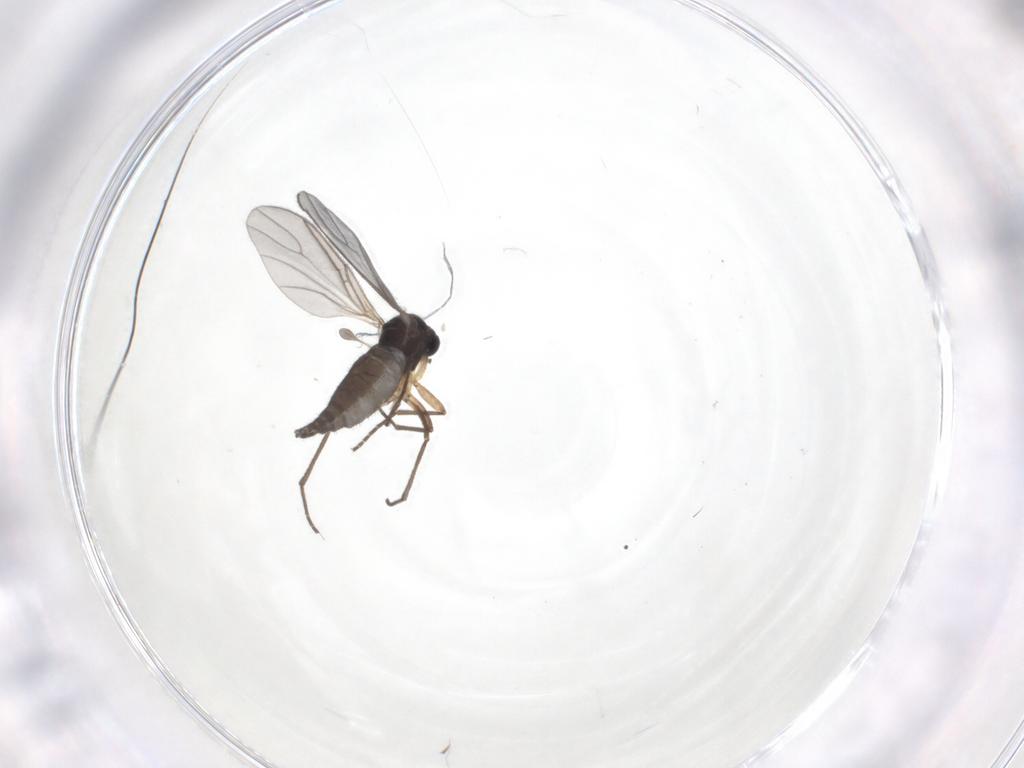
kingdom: Animalia
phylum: Arthropoda
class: Insecta
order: Diptera
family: Sciaridae
